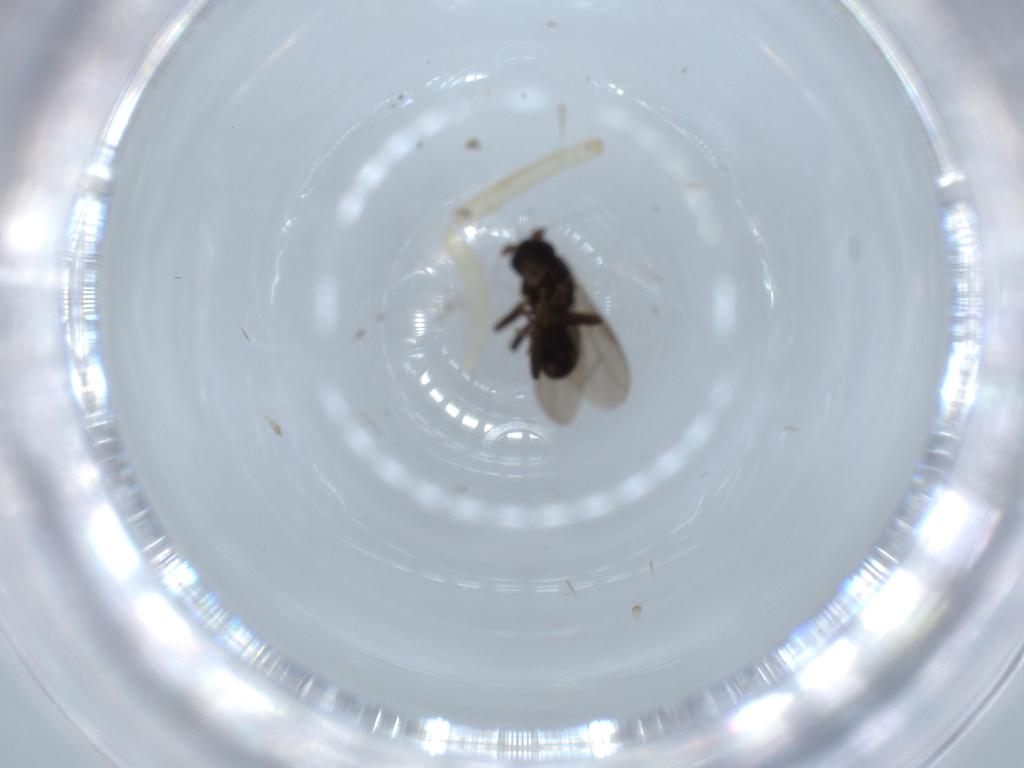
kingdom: Animalia
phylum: Arthropoda
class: Insecta
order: Diptera
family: Sphaeroceridae
